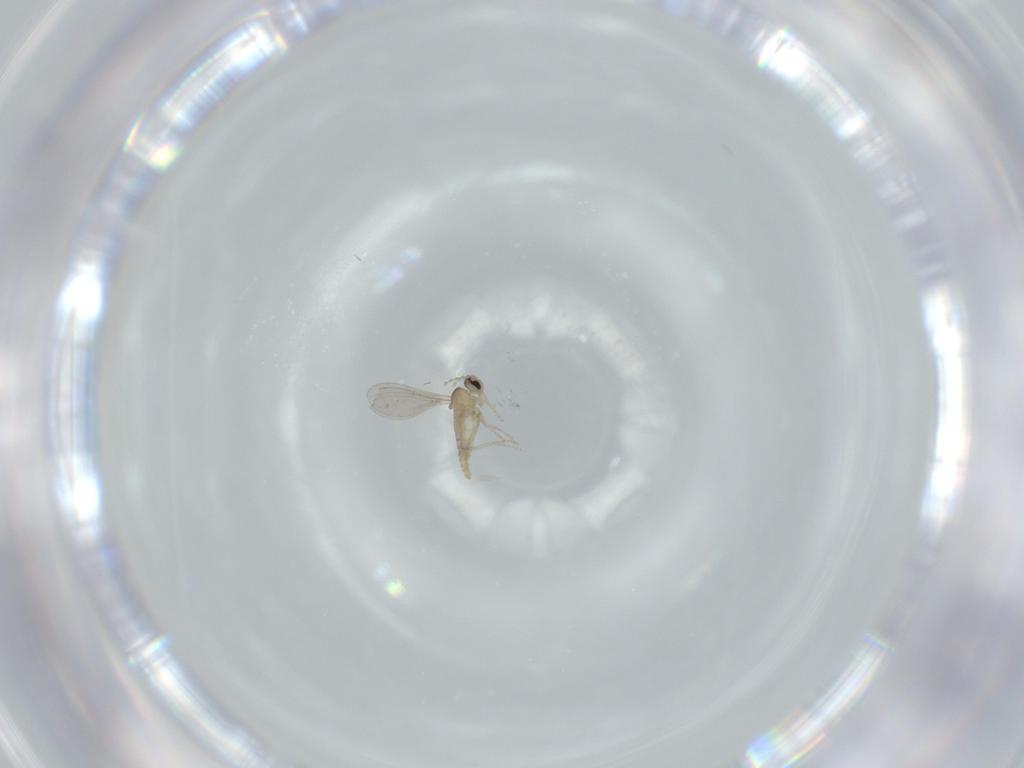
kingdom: Animalia
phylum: Arthropoda
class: Insecta
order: Diptera
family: Cecidomyiidae
